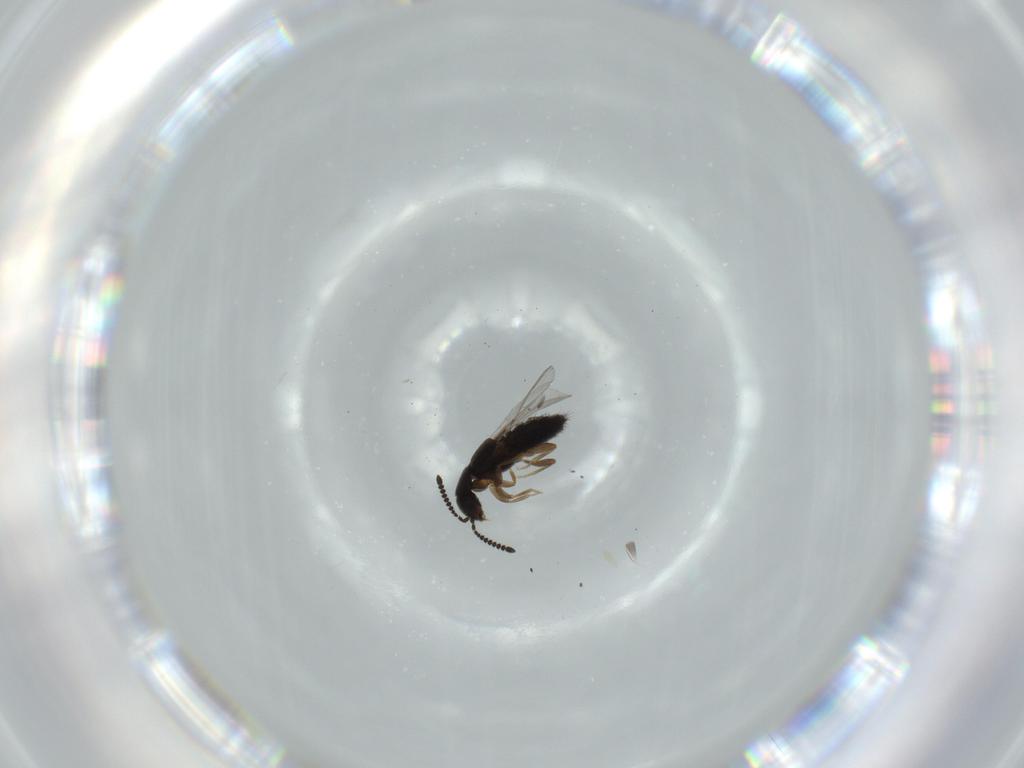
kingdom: Animalia
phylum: Arthropoda
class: Insecta
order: Coleoptera
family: Staphylinidae
